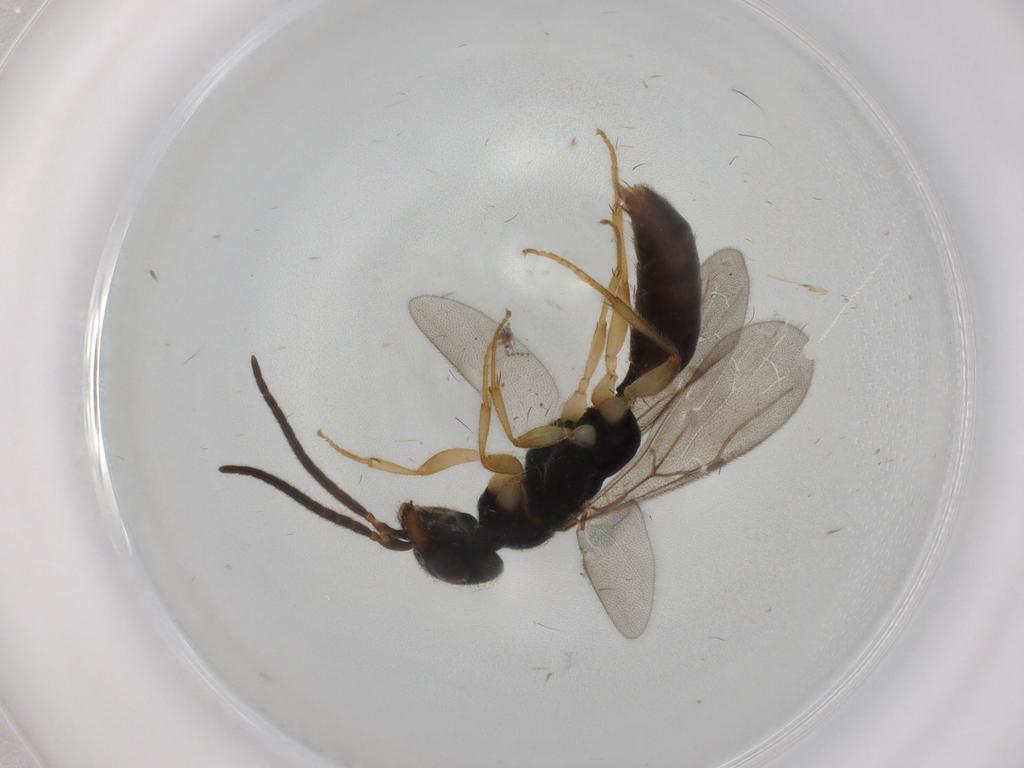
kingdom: Animalia
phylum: Arthropoda
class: Insecta
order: Hymenoptera
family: Bethylidae
